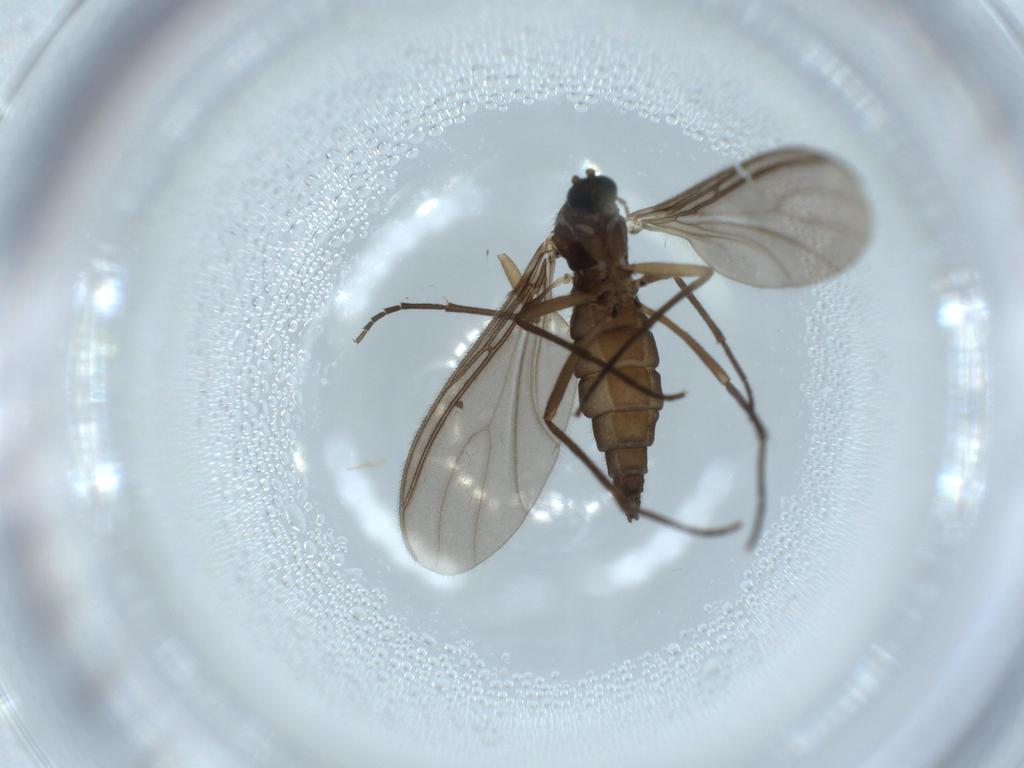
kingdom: Animalia
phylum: Arthropoda
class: Insecta
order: Diptera
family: Sciaridae
